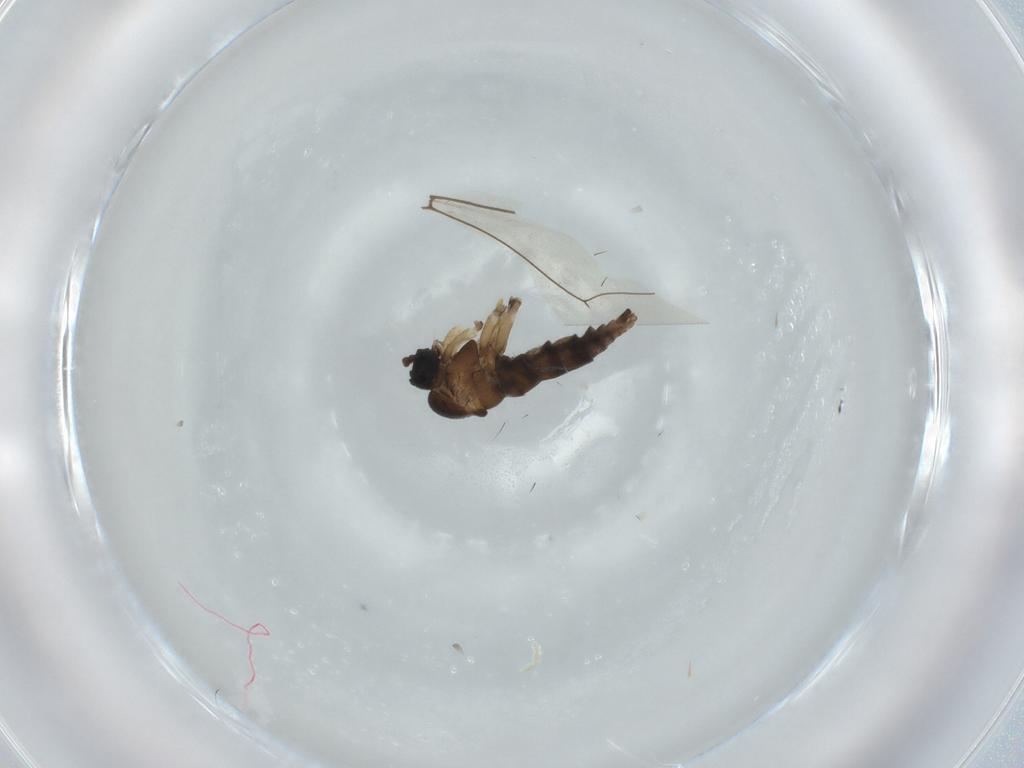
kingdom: Animalia
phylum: Arthropoda
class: Insecta
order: Diptera
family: Sciaridae
